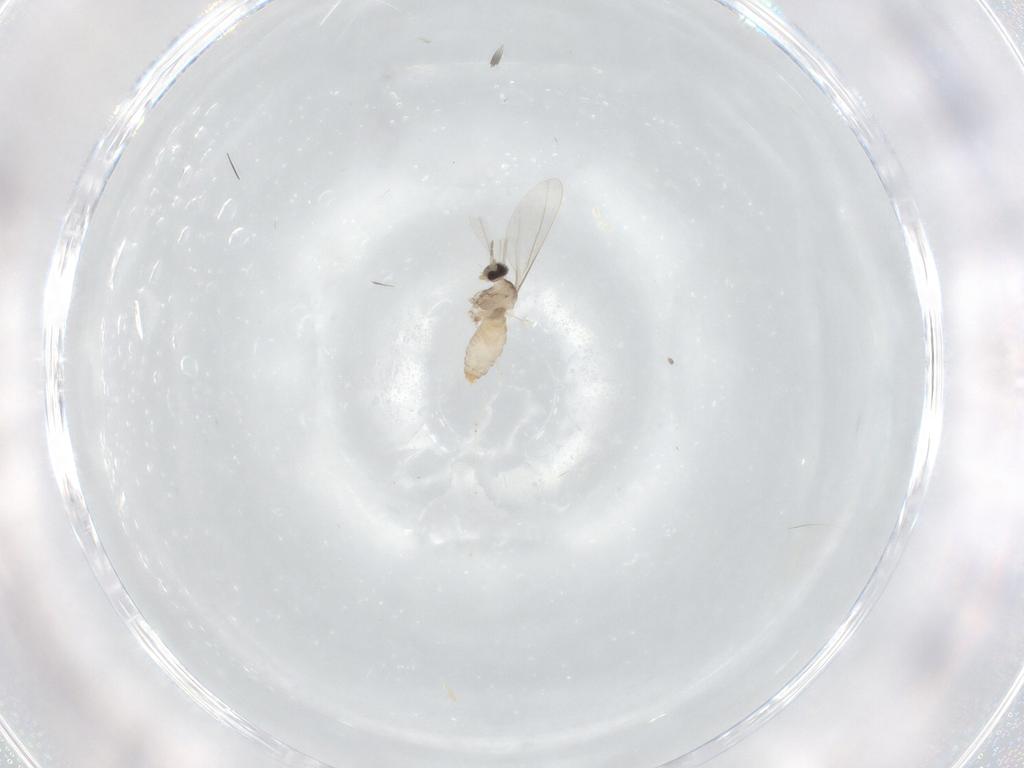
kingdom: Animalia
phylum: Arthropoda
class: Insecta
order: Diptera
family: Cecidomyiidae
